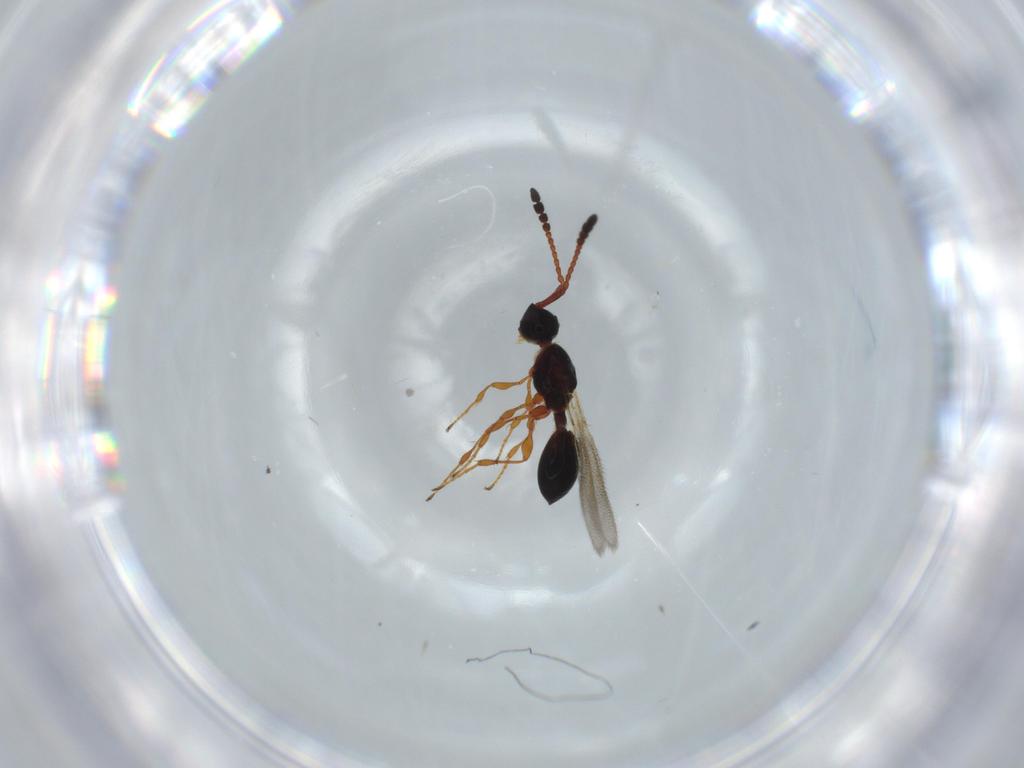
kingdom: Animalia
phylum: Arthropoda
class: Insecta
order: Hymenoptera
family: Diapriidae
